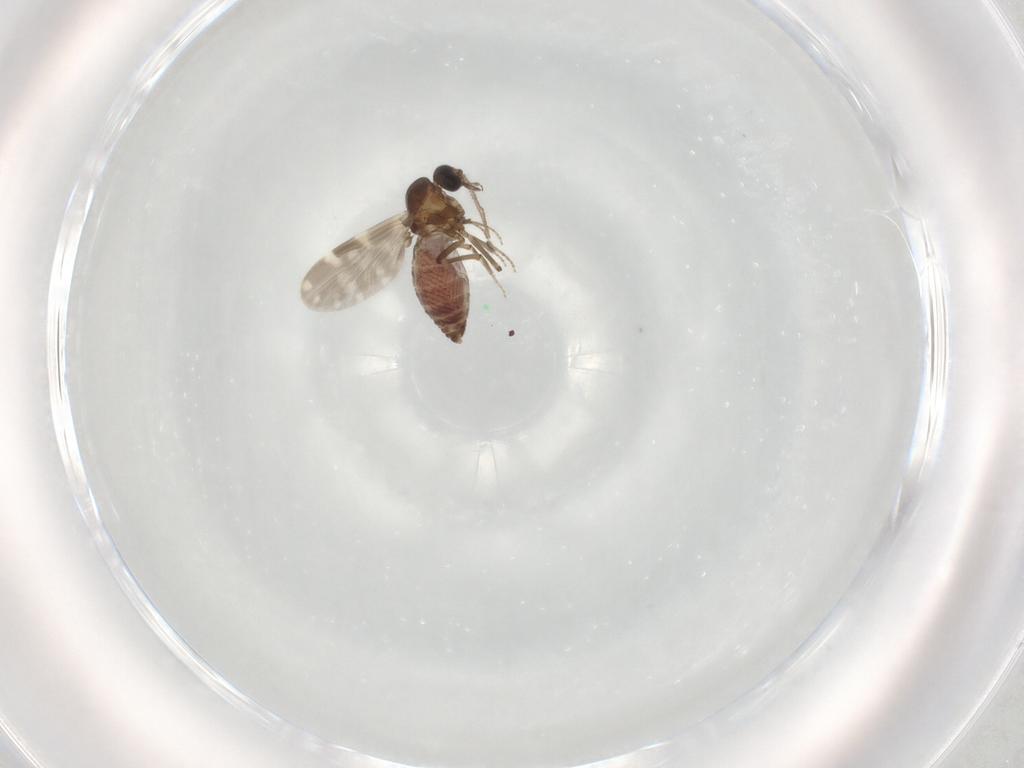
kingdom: Animalia
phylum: Arthropoda
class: Insecta
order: Diptera
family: Ceratopogonidae
